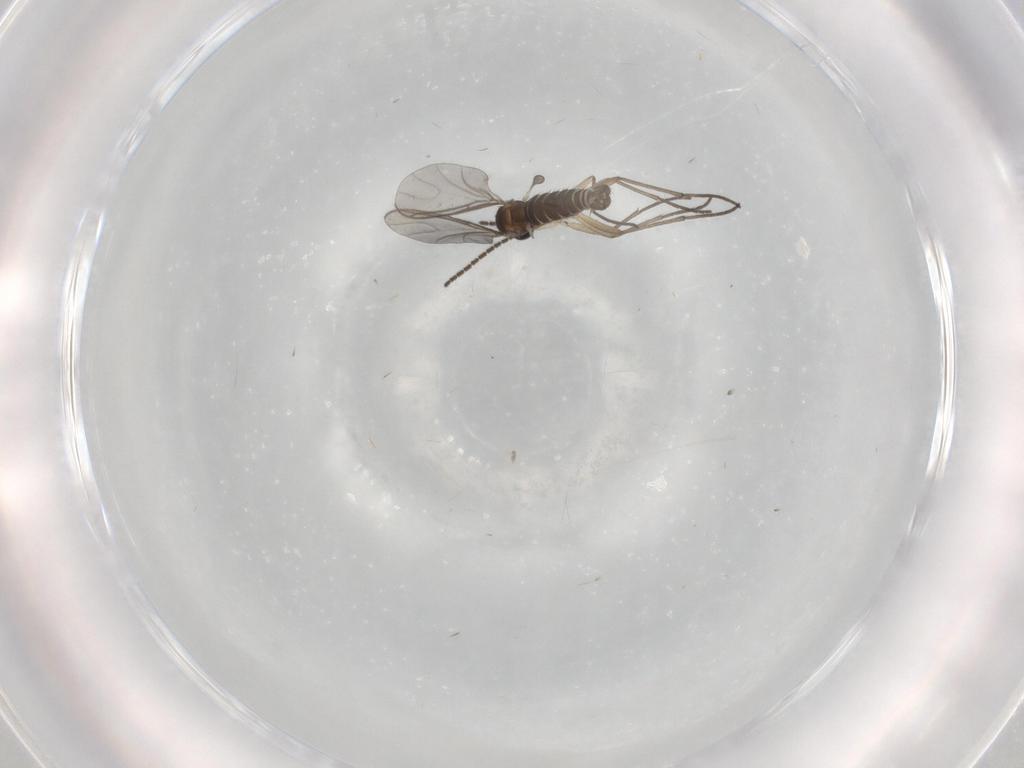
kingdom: Animalia
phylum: Arthropoda
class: Insecta
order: Diptera
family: Sciaridae
